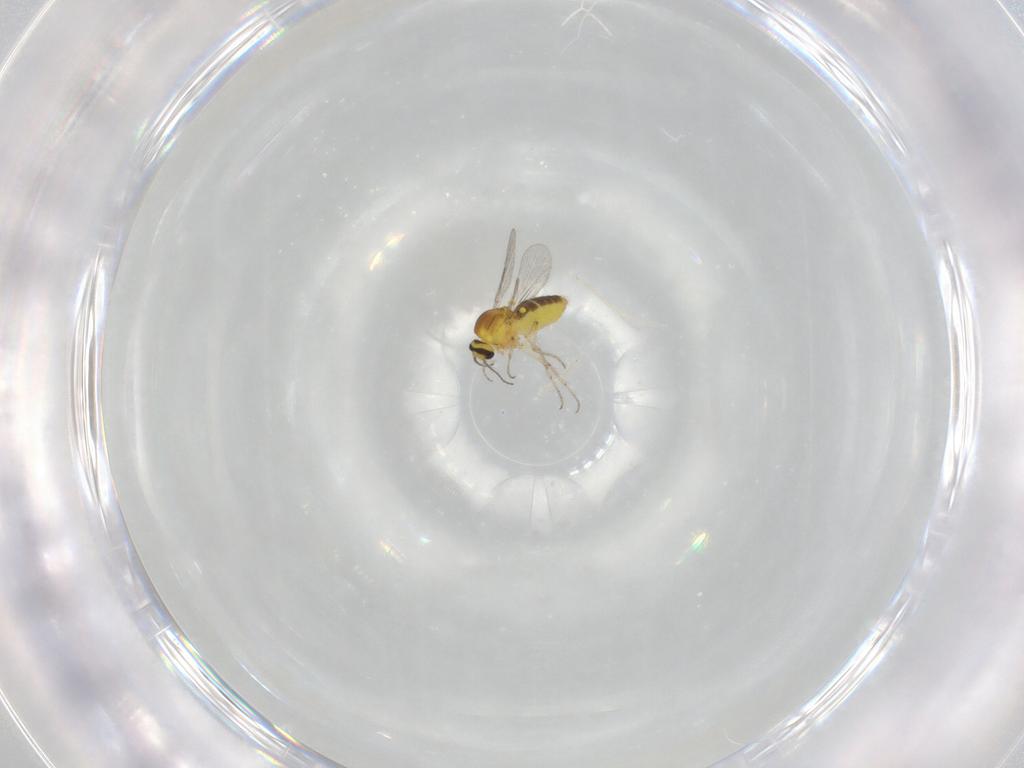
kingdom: Animalia
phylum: Arthropoda
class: Insecta
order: Diptera
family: Ceratopogonidae
